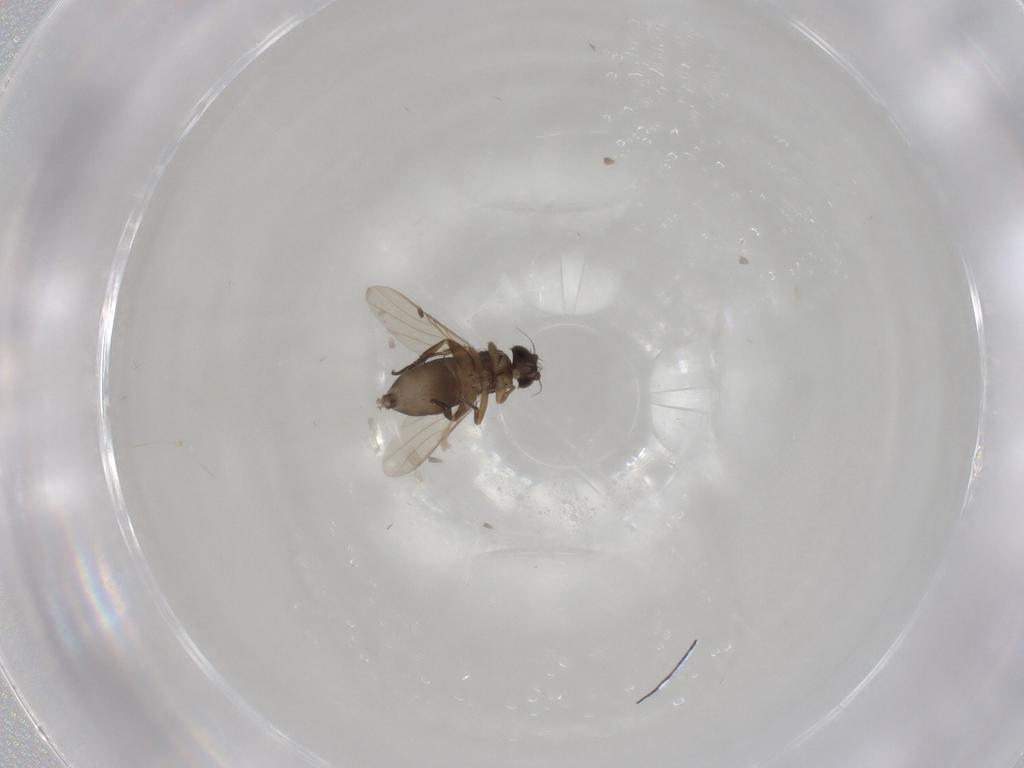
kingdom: Animalia
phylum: Arthropoda
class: Insecta
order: Diptera
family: Phoridae
